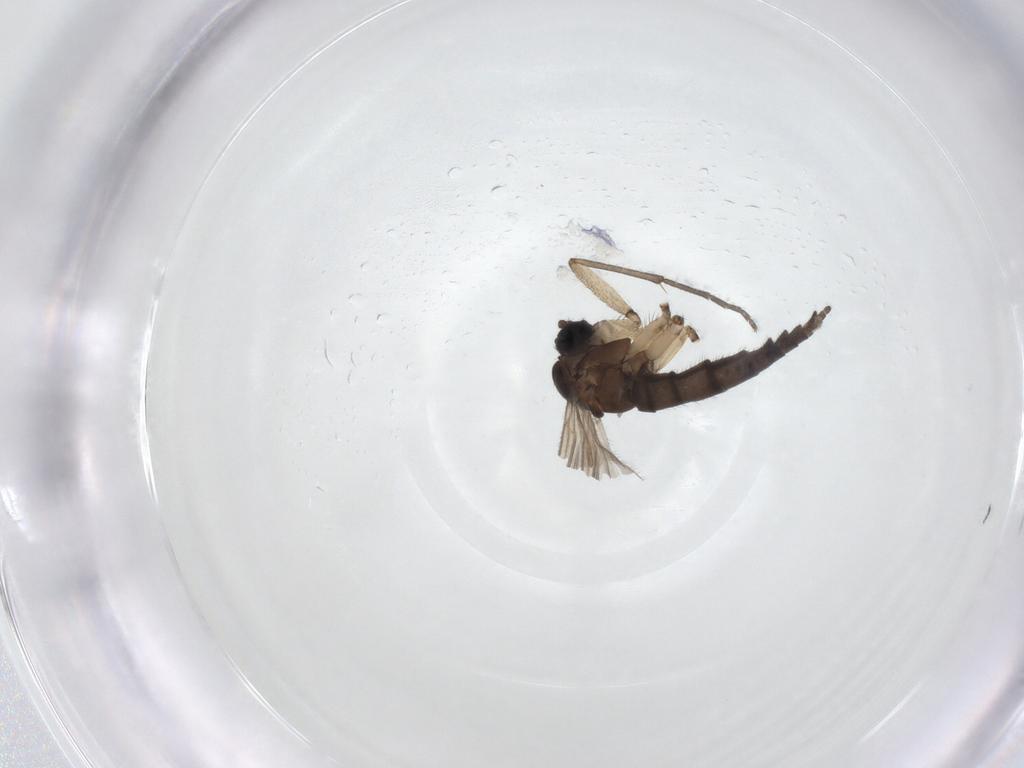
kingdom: Animalia
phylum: Arthropoda
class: Insecta
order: Diptera
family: Sciaridae
